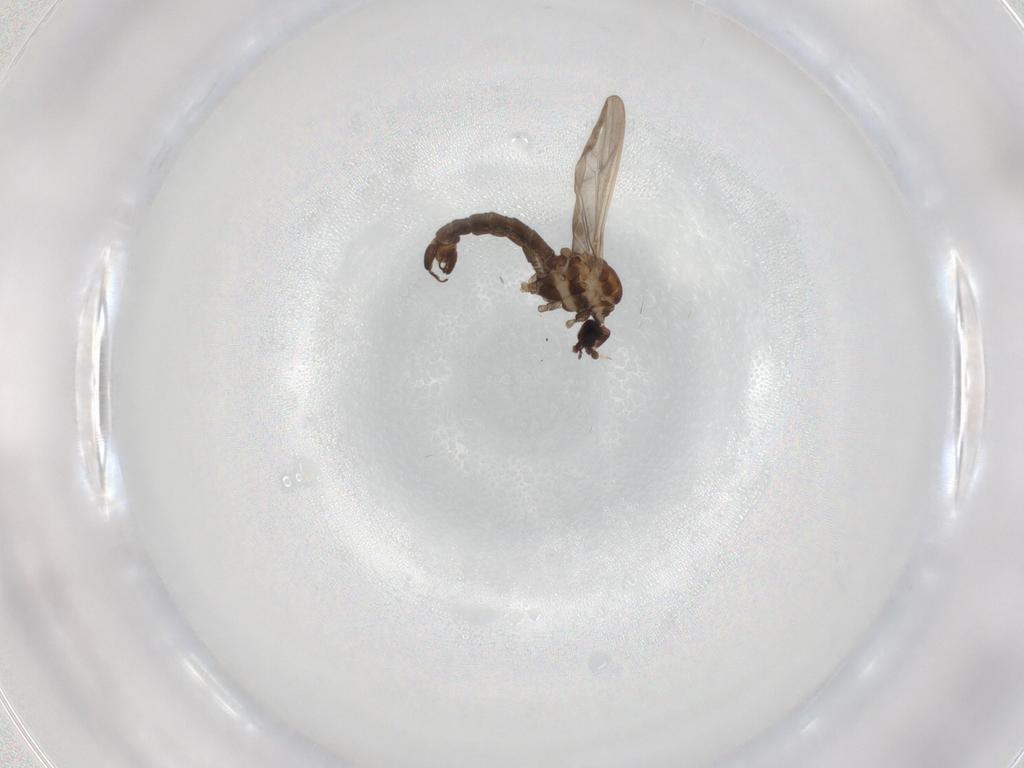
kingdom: Animalia
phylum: Arthropoda
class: Insecta
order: Diptera
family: Limoniidae
